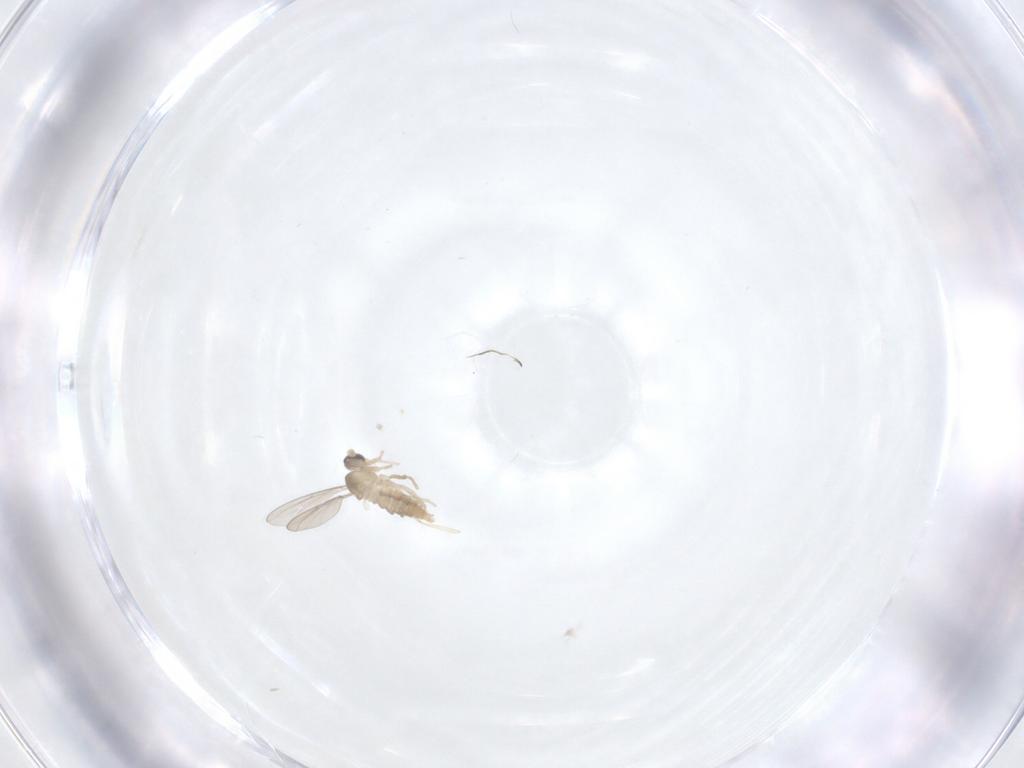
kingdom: Animalia
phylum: Arthropoda
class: Insecta
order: Diptera
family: Cecidomyiidae
